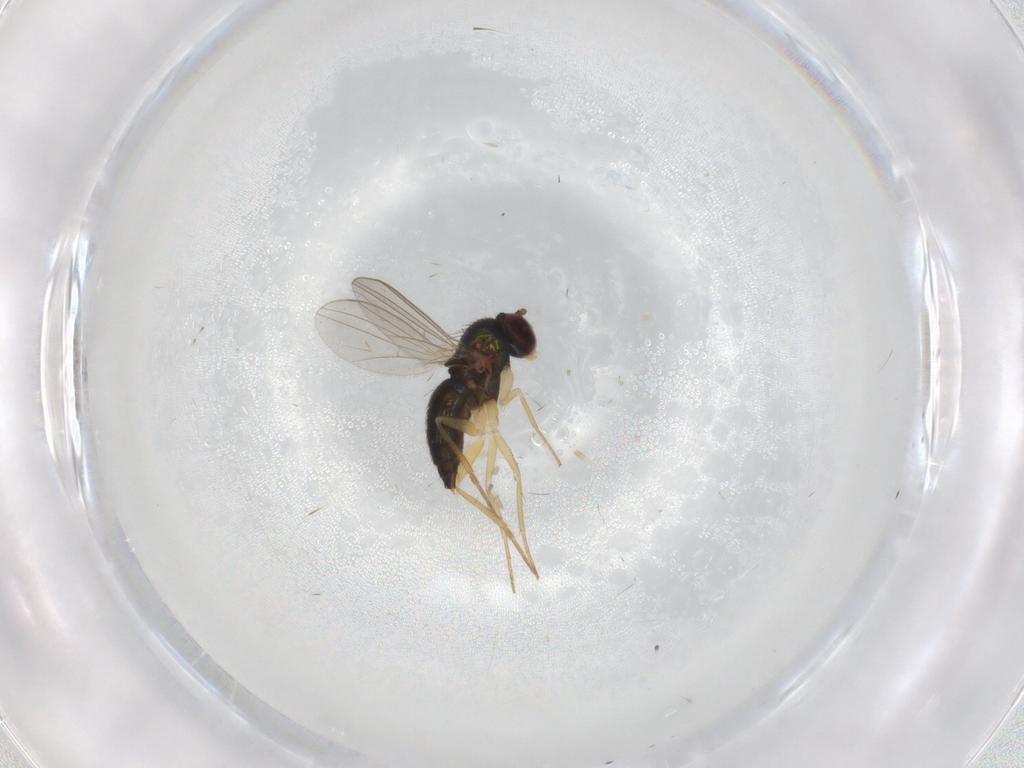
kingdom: Animalia
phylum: Arthropoda
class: Insecta
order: Diptera
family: Dolichopodidae
